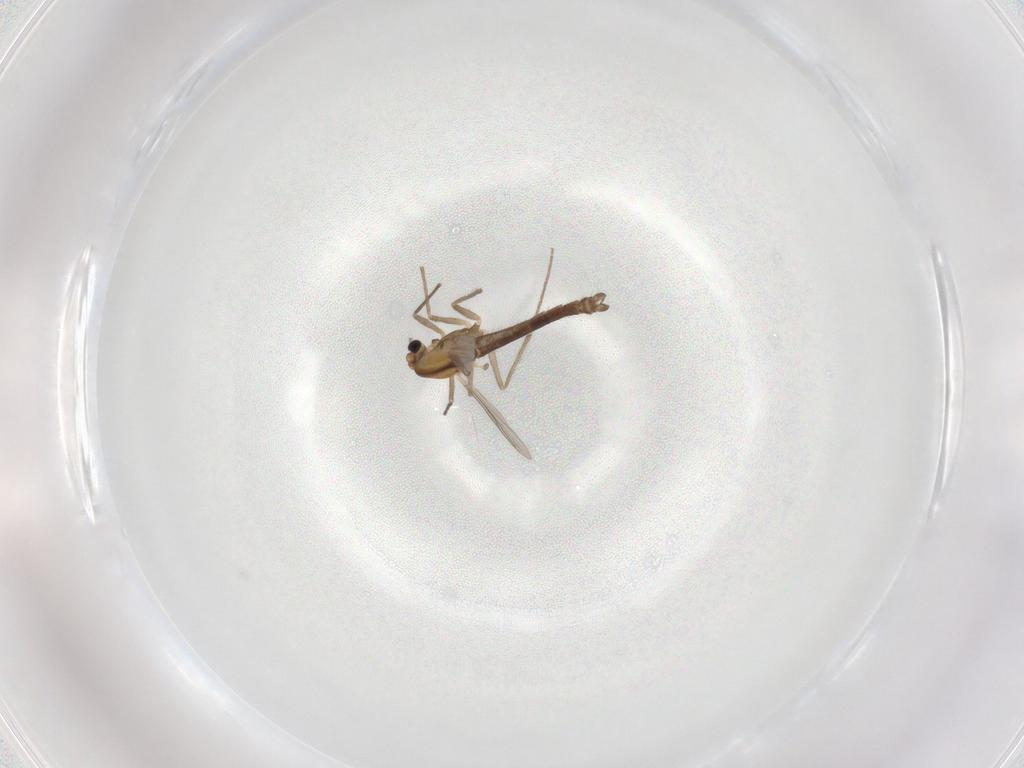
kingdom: Animalia
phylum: Arthropoda
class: Insecta
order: Diptera
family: Chironomidae
